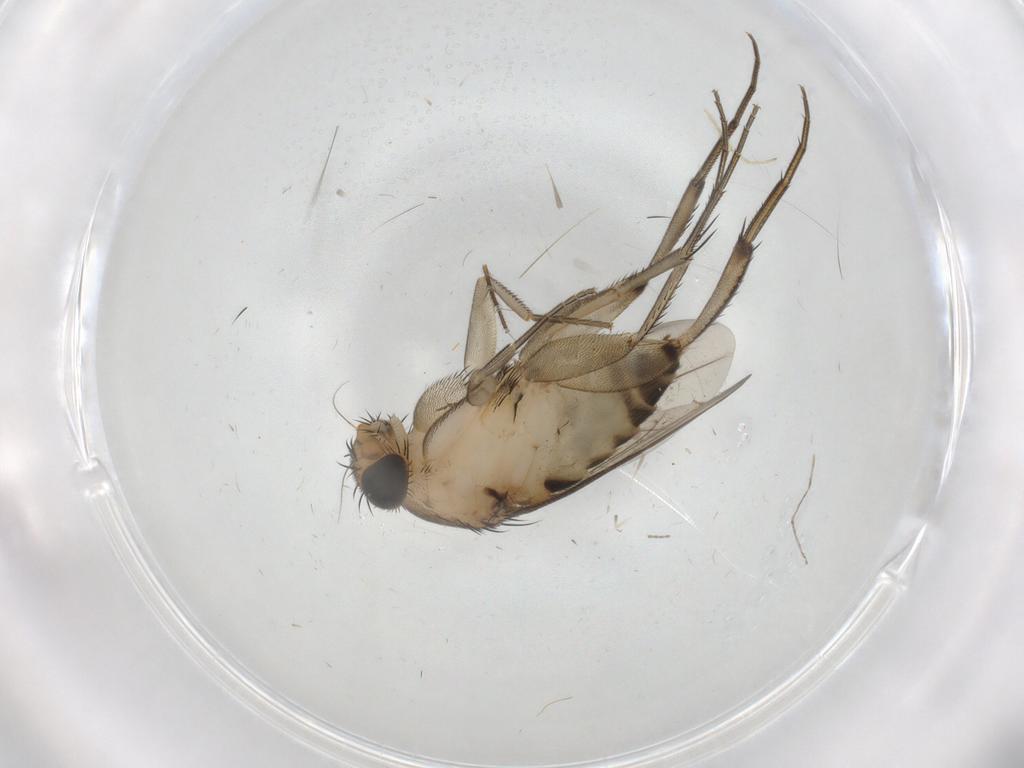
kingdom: Animalia
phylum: Arthropoda
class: Insecta
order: Diptera
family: Phoridae
